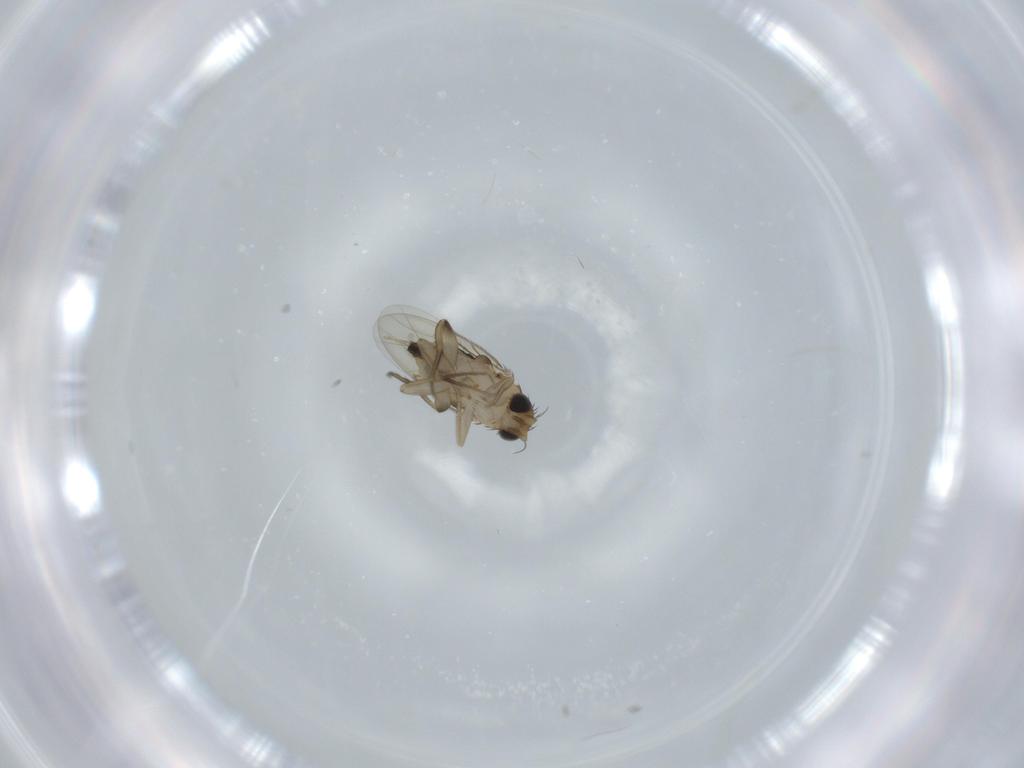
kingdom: Animalia
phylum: Arthropoda
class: Insecta
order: Diptera
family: Phoridae
